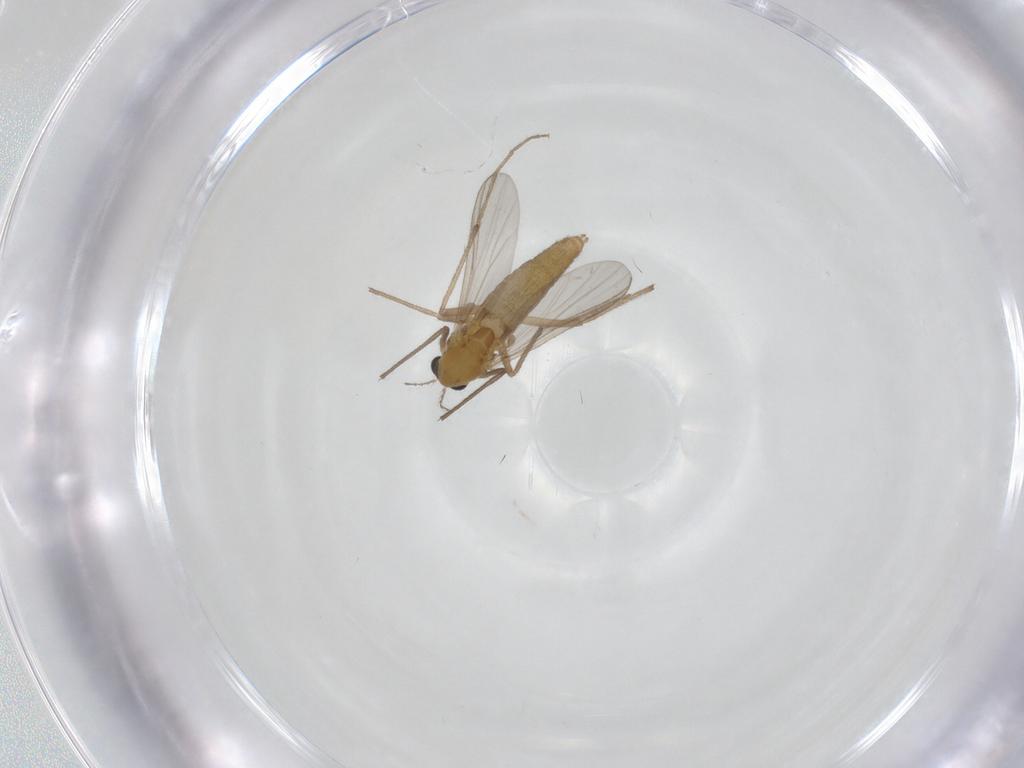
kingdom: Animalia
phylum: Arthropoda
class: Insecta
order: Diptera
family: Chironomidae
